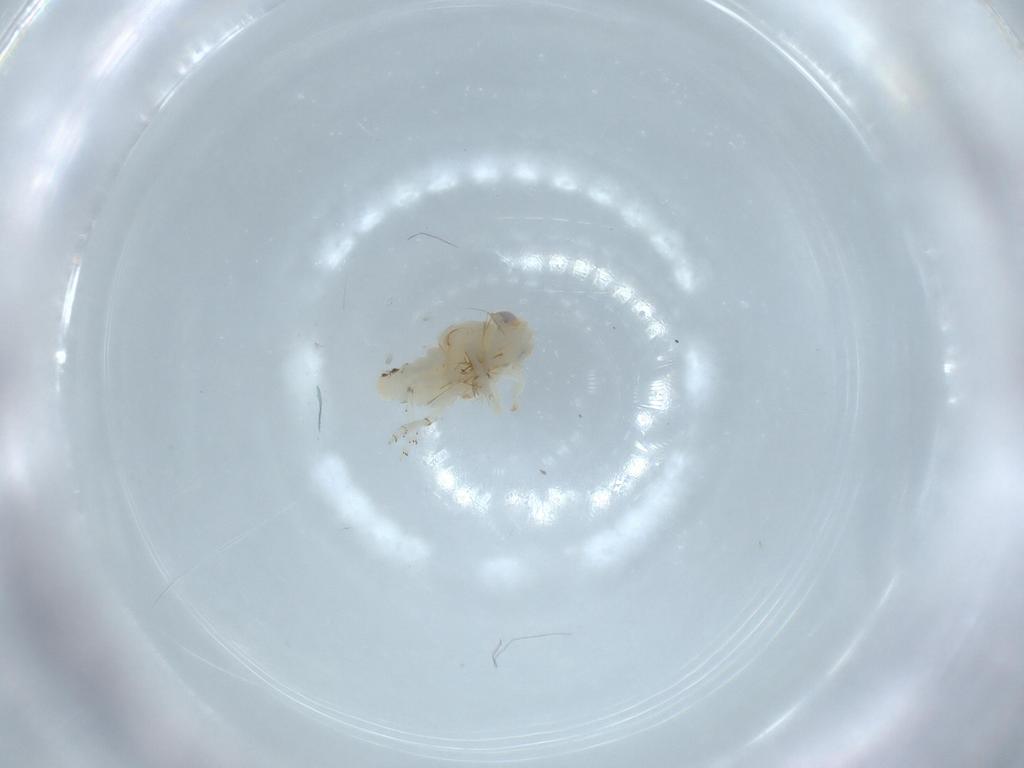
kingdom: Animalia
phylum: Arthropoda
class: Insecta
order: Hemiptera
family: Nogodinidae
